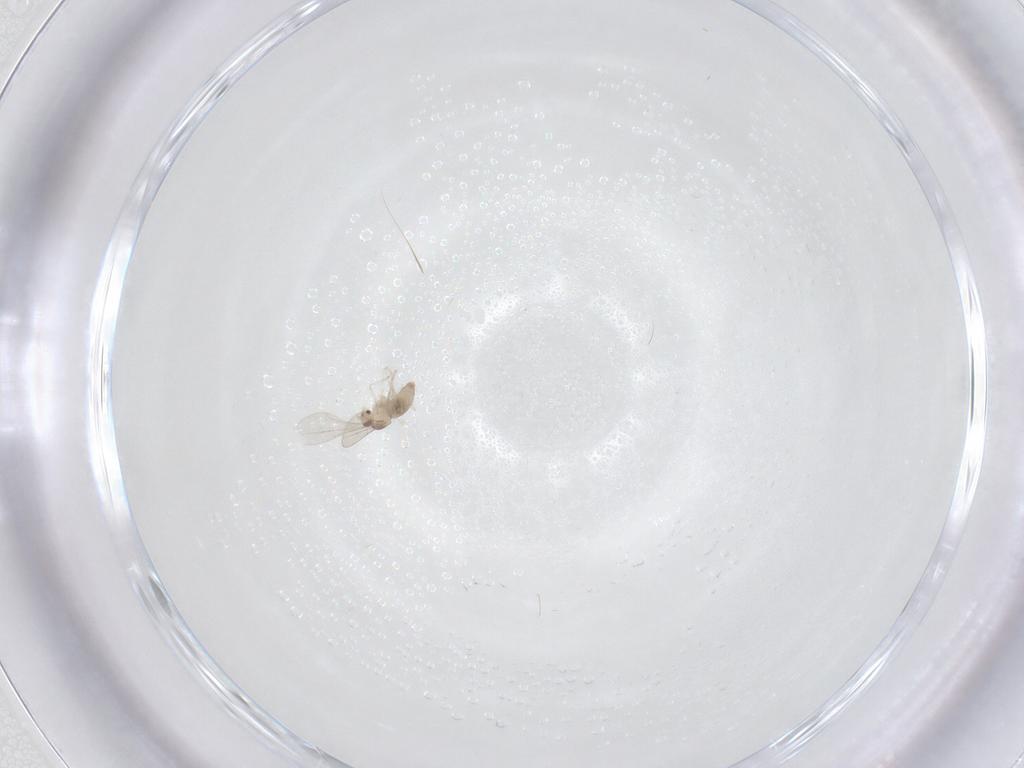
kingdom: Animalia
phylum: Arthropoda
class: Insecta
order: Diptera
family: Cecidomyiidae
